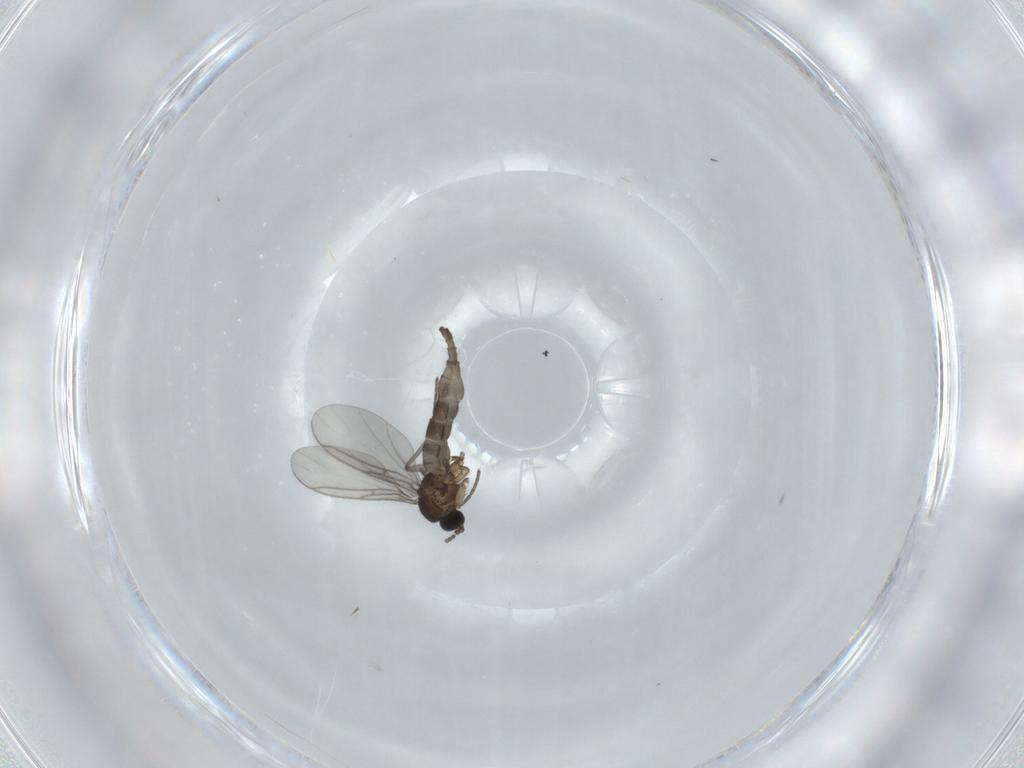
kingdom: Animalia
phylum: Arthropoda
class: Insecta
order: Diptera
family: Mycetophilidae
